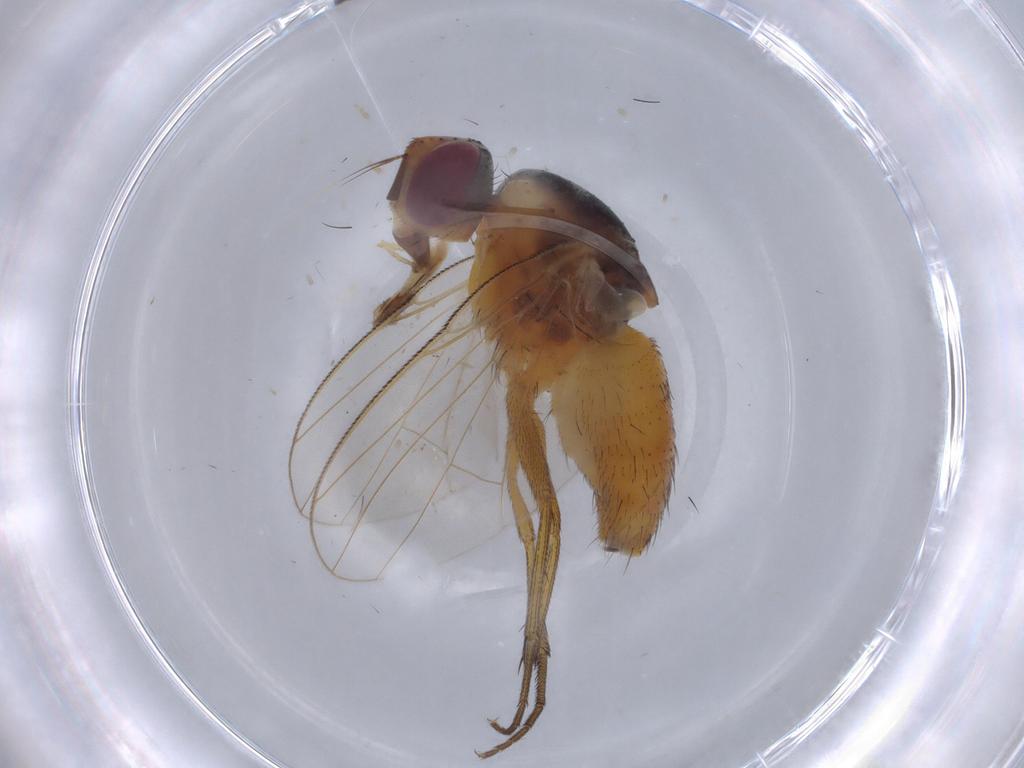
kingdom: Animalia
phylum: Arthropoda
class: Insecta
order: Diptera
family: Muscidae
